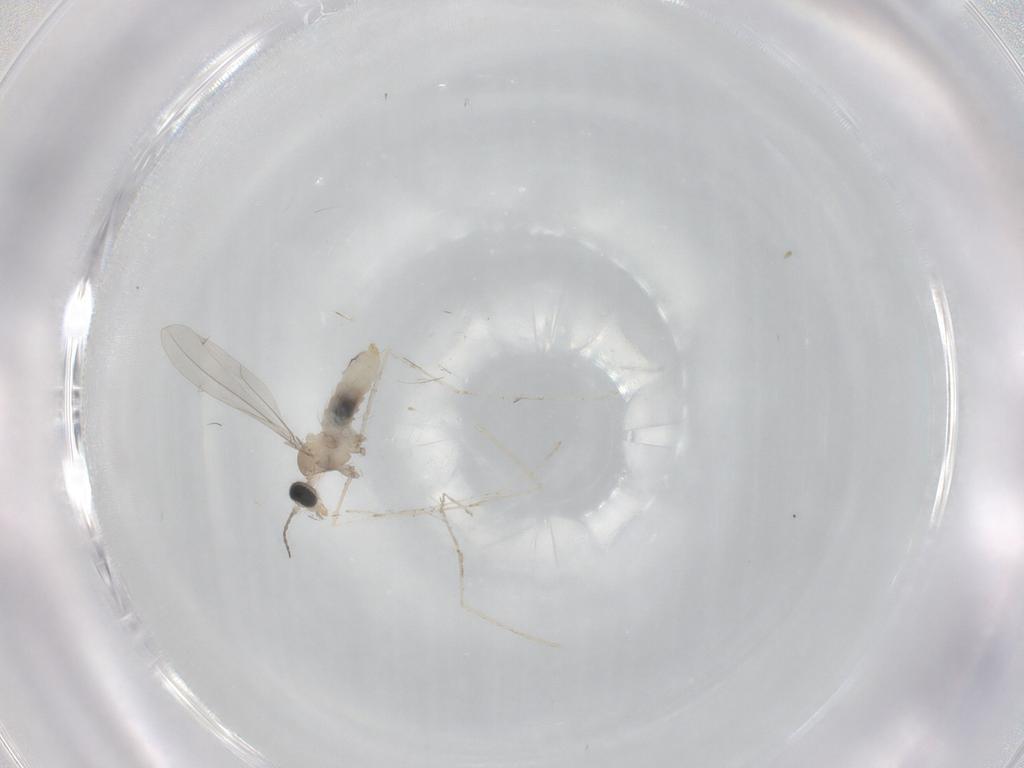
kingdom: Animalia
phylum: Arthropoda
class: Insecta
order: Diptera
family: Cecidomyiidae
